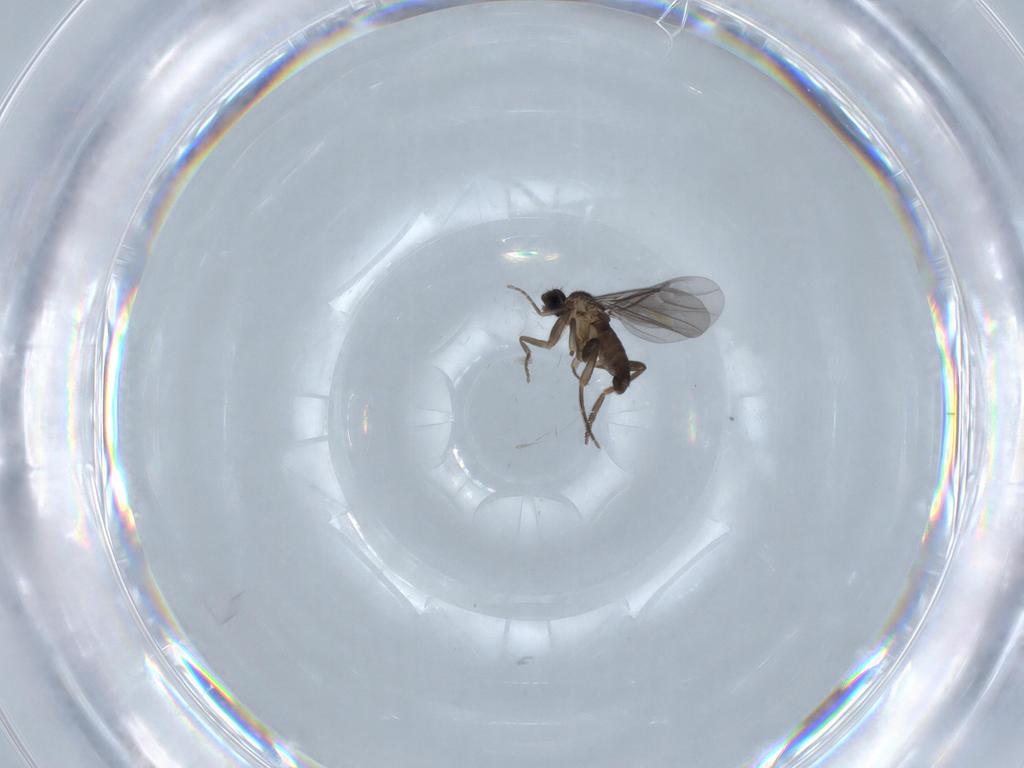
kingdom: Animalia
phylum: Arthropoda
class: Insecta
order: Diptera
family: Phoridae
